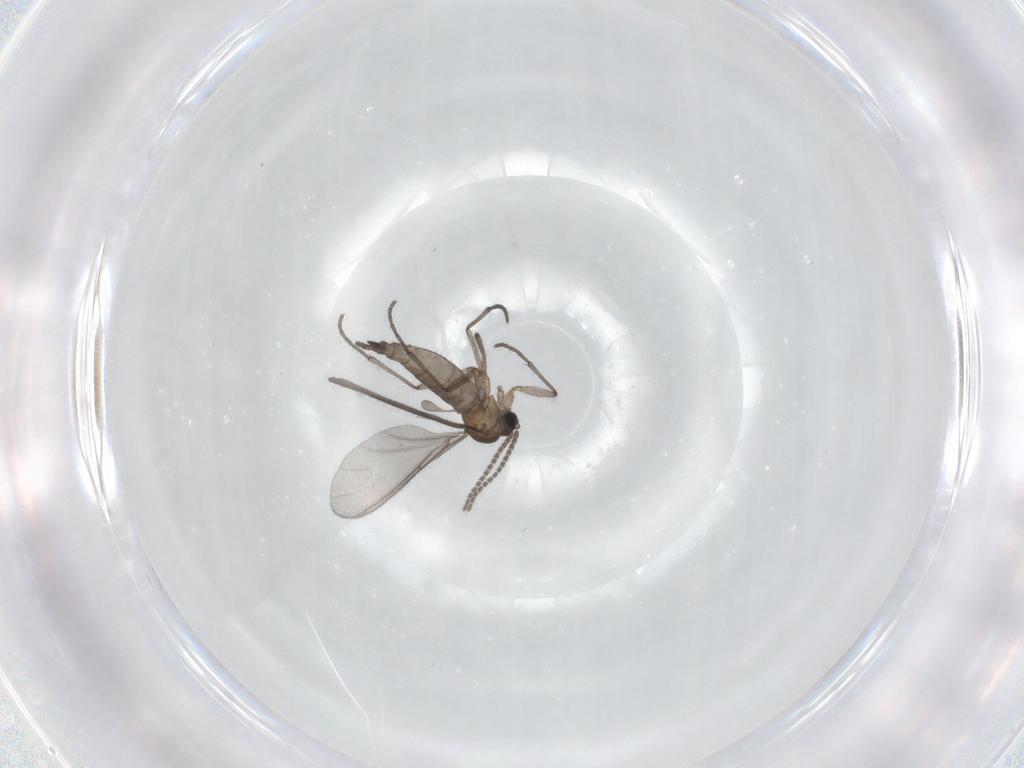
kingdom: Animalia
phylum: Arthropoda
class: Insecta
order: Diptera
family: Sciaridae
